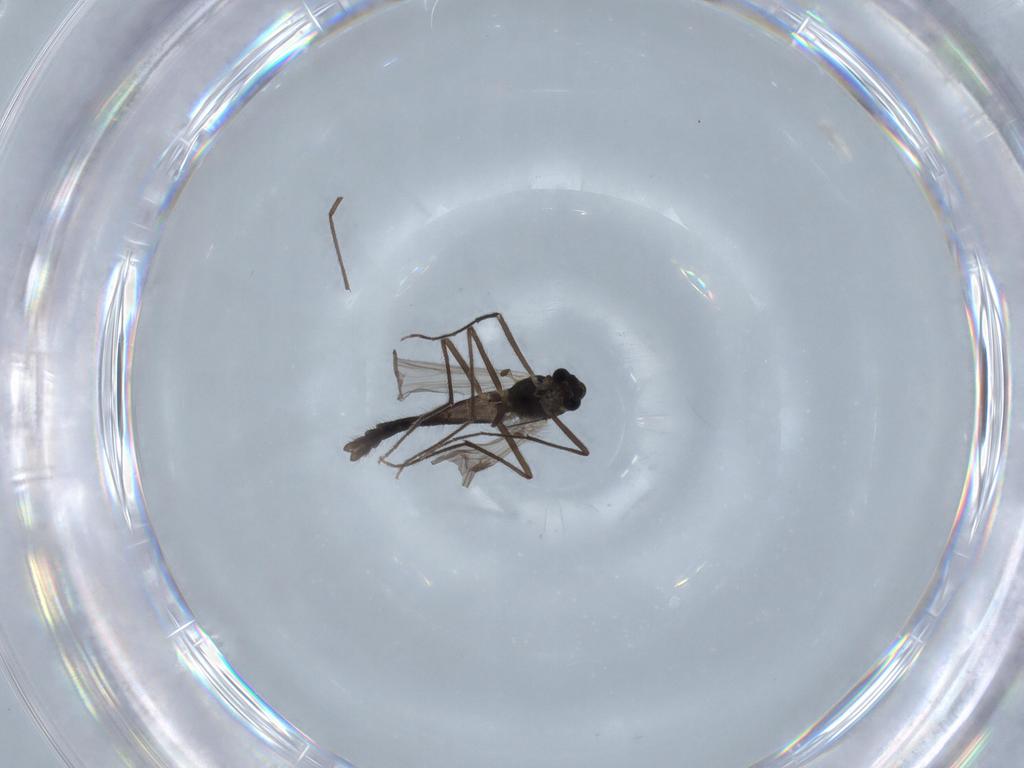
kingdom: Animalia
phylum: Arthropoda
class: Insecta
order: Diptera
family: Chironomidae
